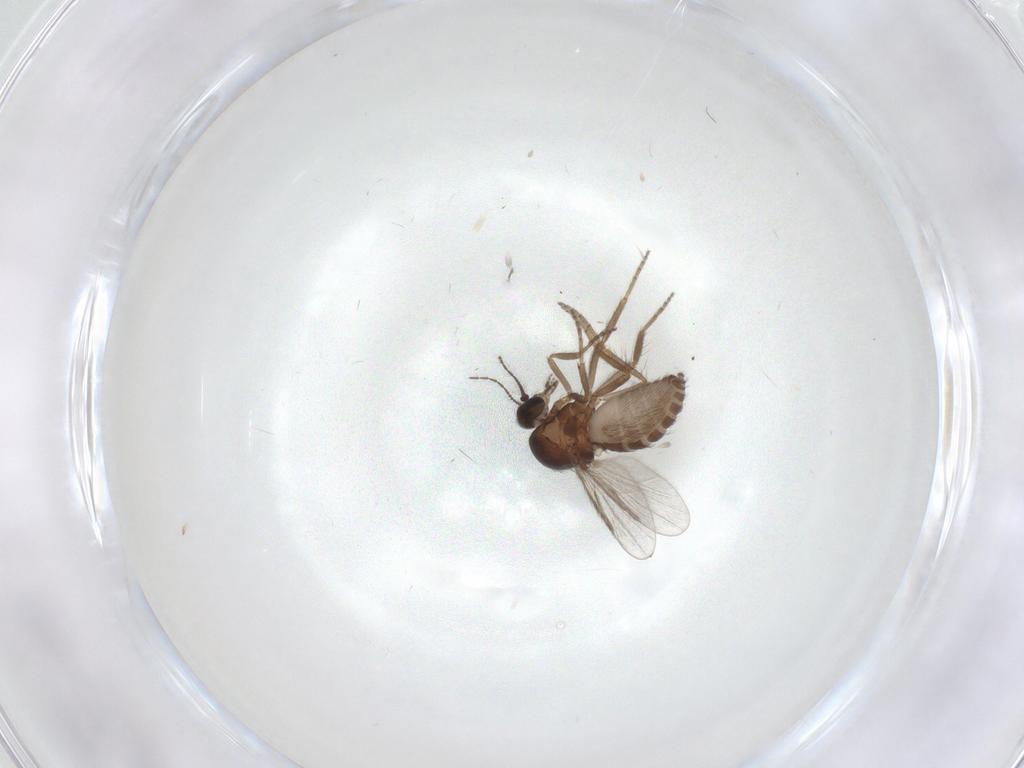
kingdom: Animalia
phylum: Arthropoda
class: Insecta
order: Diptera
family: Ceratopogonidae
